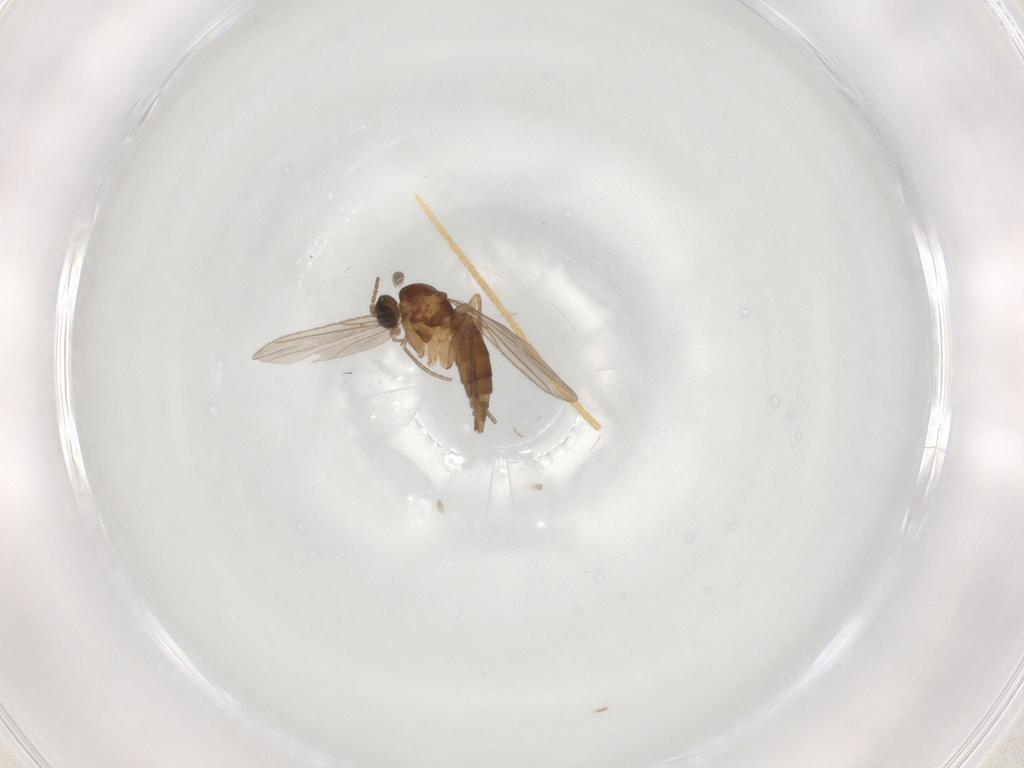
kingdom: Animalia
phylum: Arthropoda
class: Insecta
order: Diptera
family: Sciaridae
